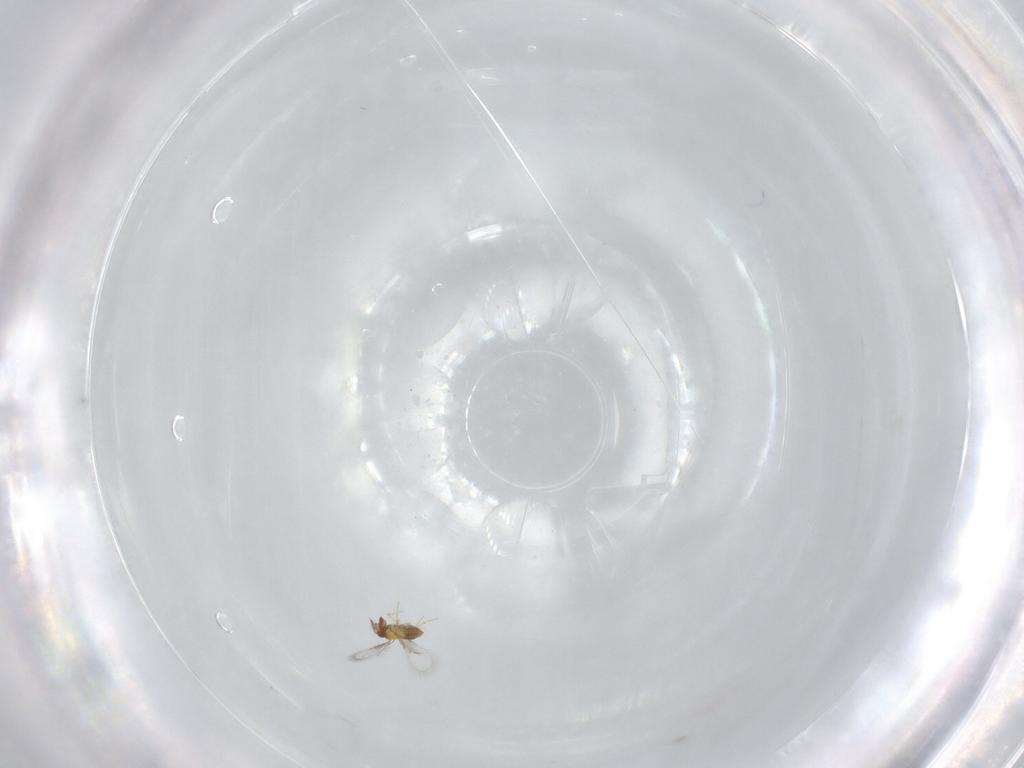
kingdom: Animalia
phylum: Arthropoda
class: Insecta
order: Hymenoptera
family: Trichogrammatidae
